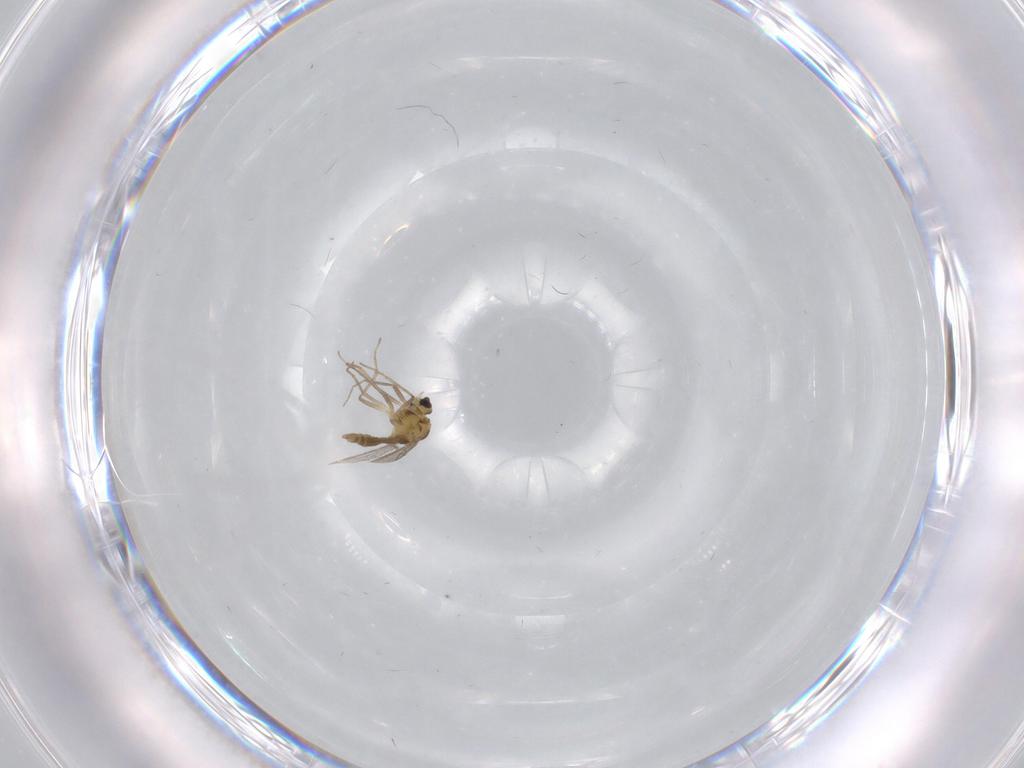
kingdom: Animalia
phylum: Arthropoda
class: Insecta
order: Diptera
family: Chironomidae
